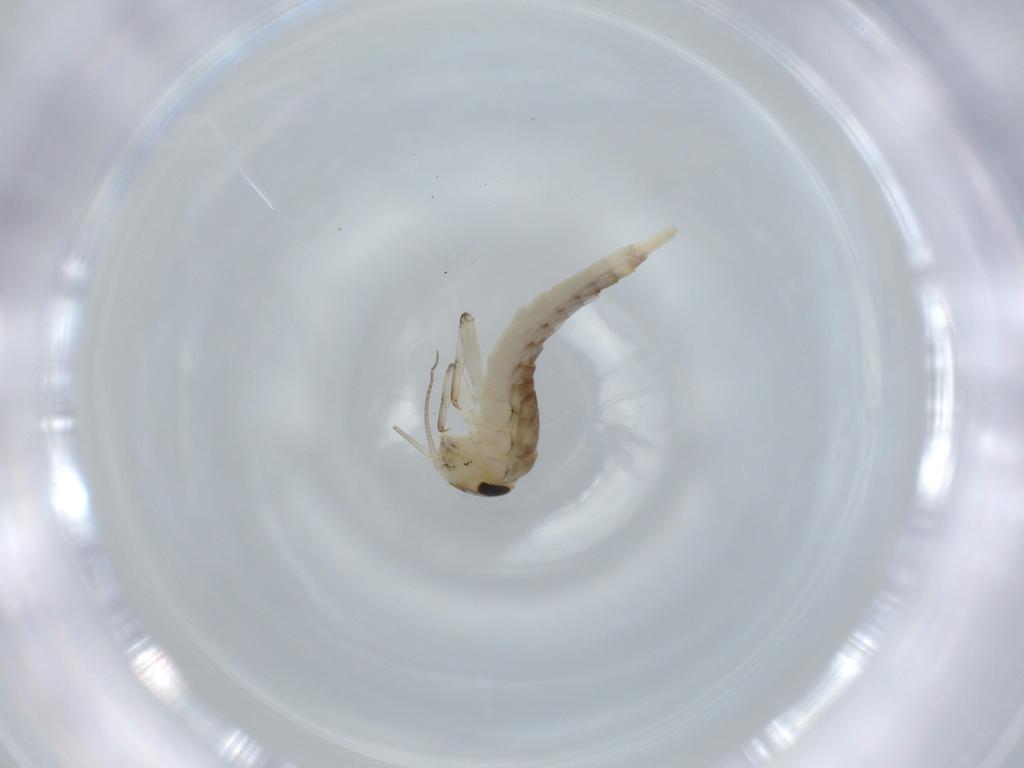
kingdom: Animalia
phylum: Arthropoda
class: Insecta
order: Ephemeroptera
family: Baetidae
